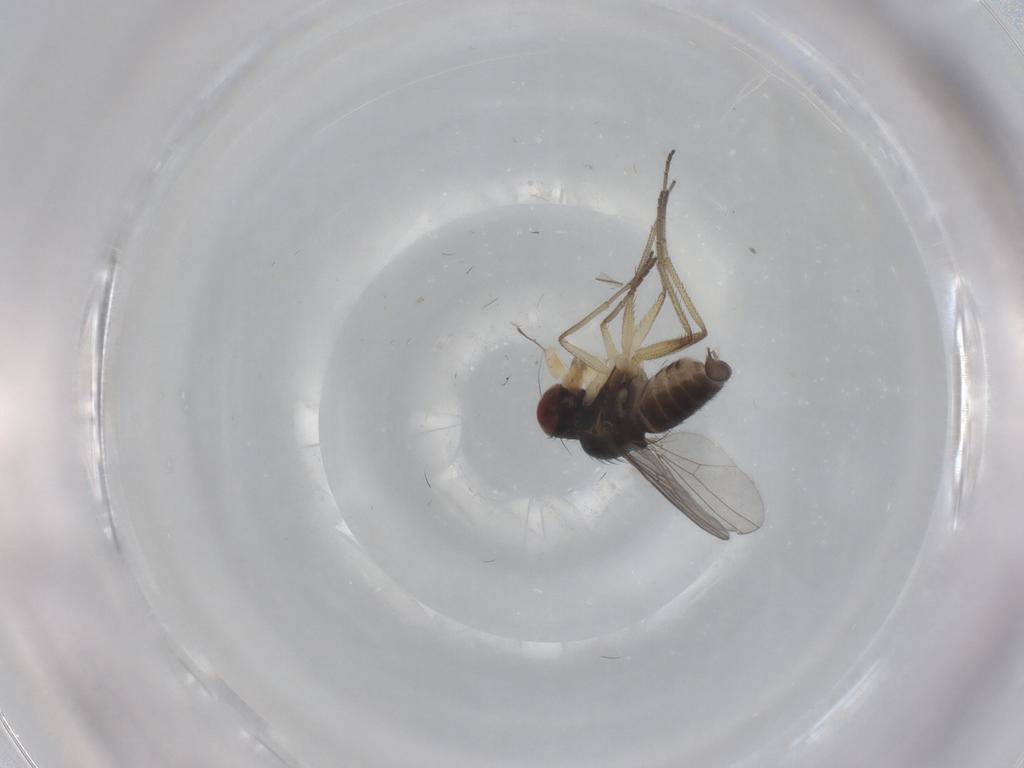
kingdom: Animalia
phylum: Arthropoda
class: Insecta
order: Diptera
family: Dolichopodidae
